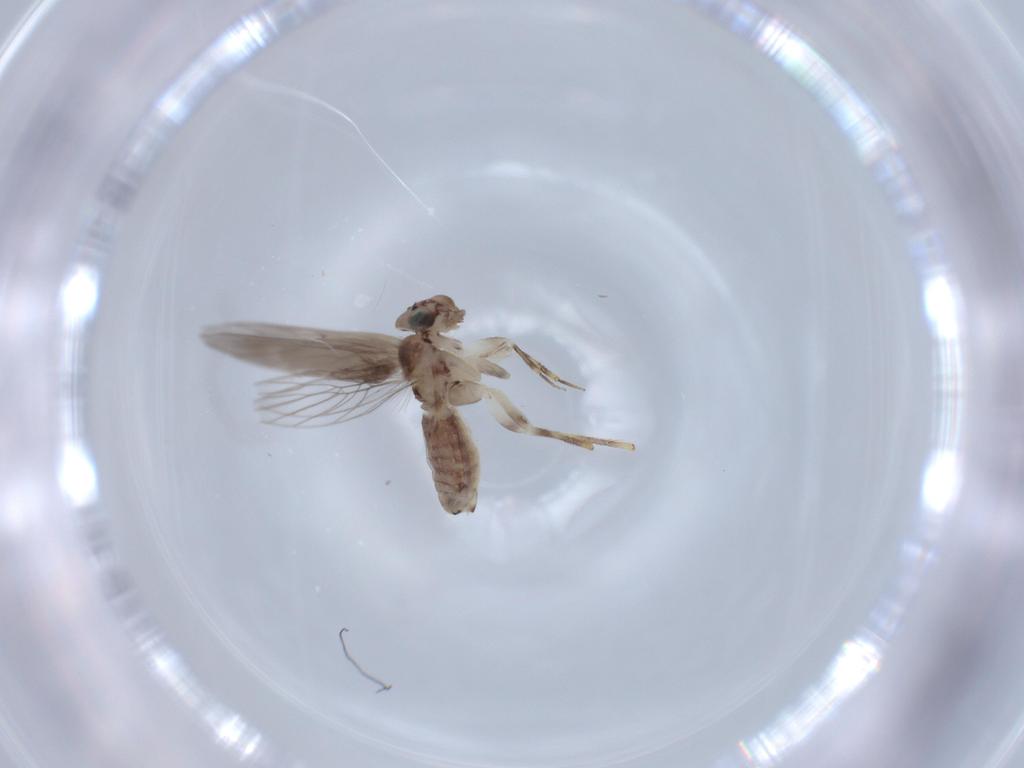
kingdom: Animalia
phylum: Arthropoda
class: Insecta
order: Psocodea
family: Lepidopsocidae
